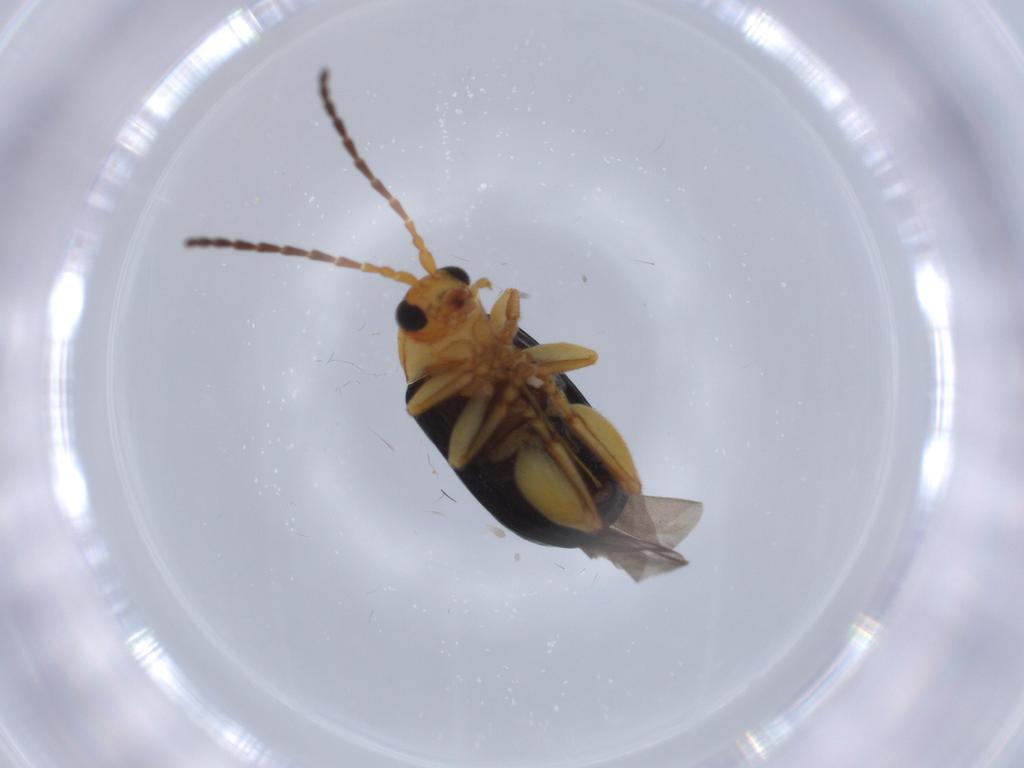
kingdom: Animalia
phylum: Arthropoda
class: Insecta
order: Coleoptera
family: Chrysomelidae
